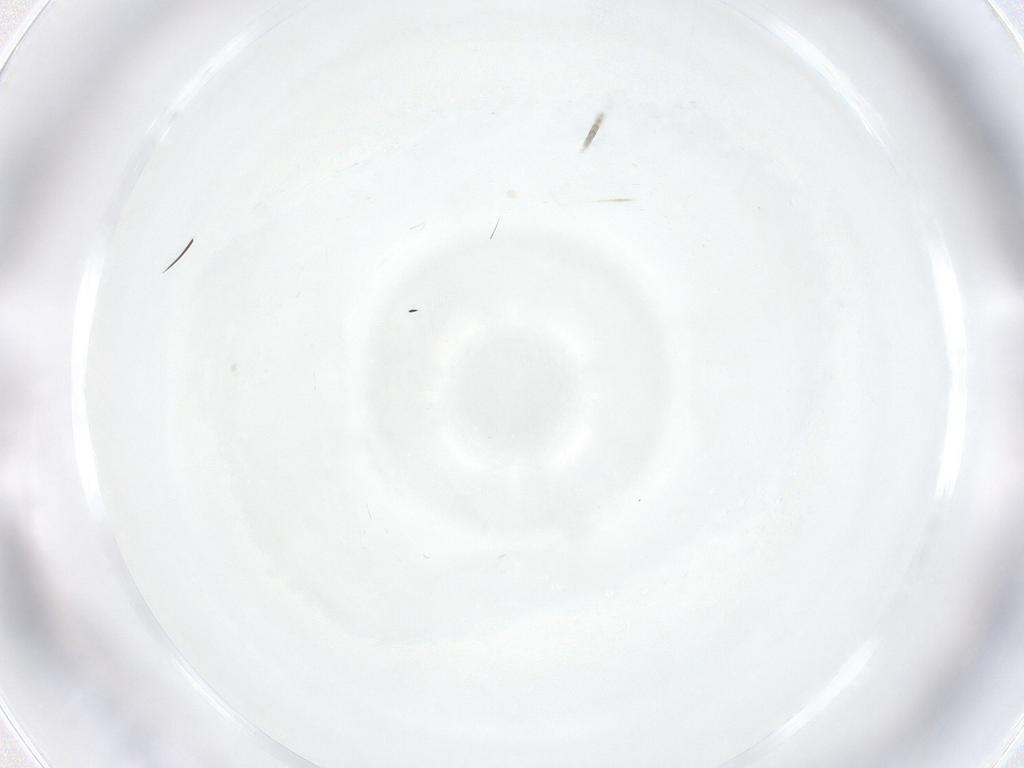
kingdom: Animalia
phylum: Arthropoda
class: Insecta
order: Diptera
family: Bombyliidae
